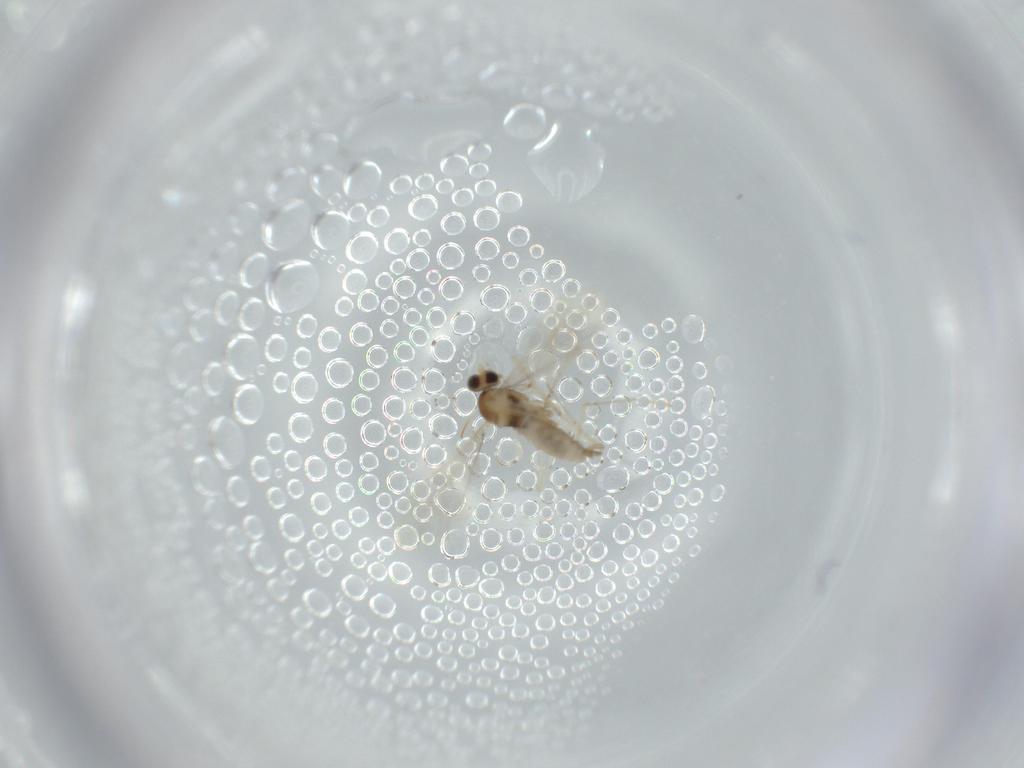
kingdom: Animalia
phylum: Arthropoda
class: Insecta
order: Diptera
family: Cecidomyiidae
